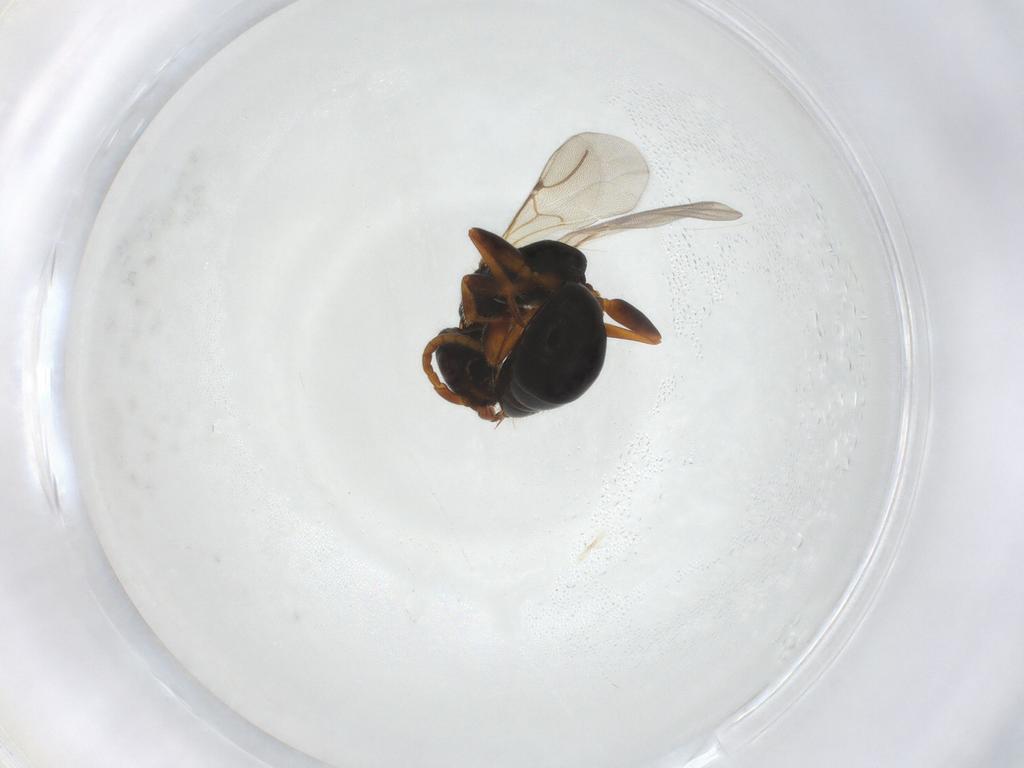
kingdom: Animalia
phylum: Arthropoda
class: Insecta
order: Hymenoptera
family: Bethylidae
